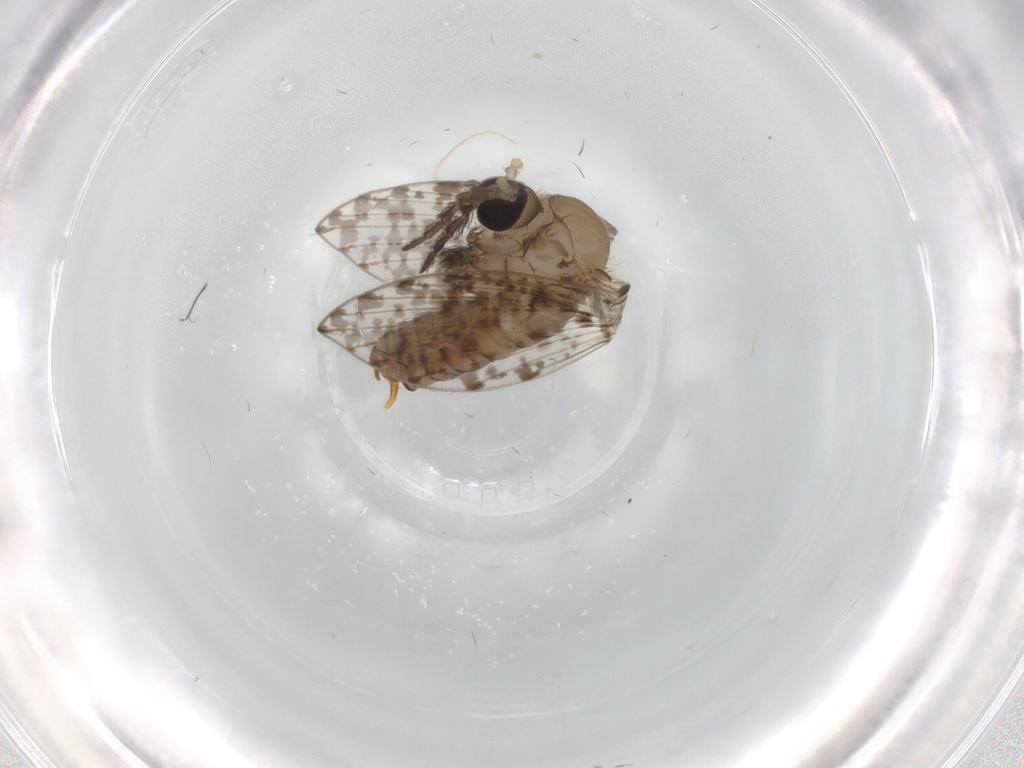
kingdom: Animalia
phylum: Arthropoda
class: Insecta
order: Diptera
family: Psychodidae
